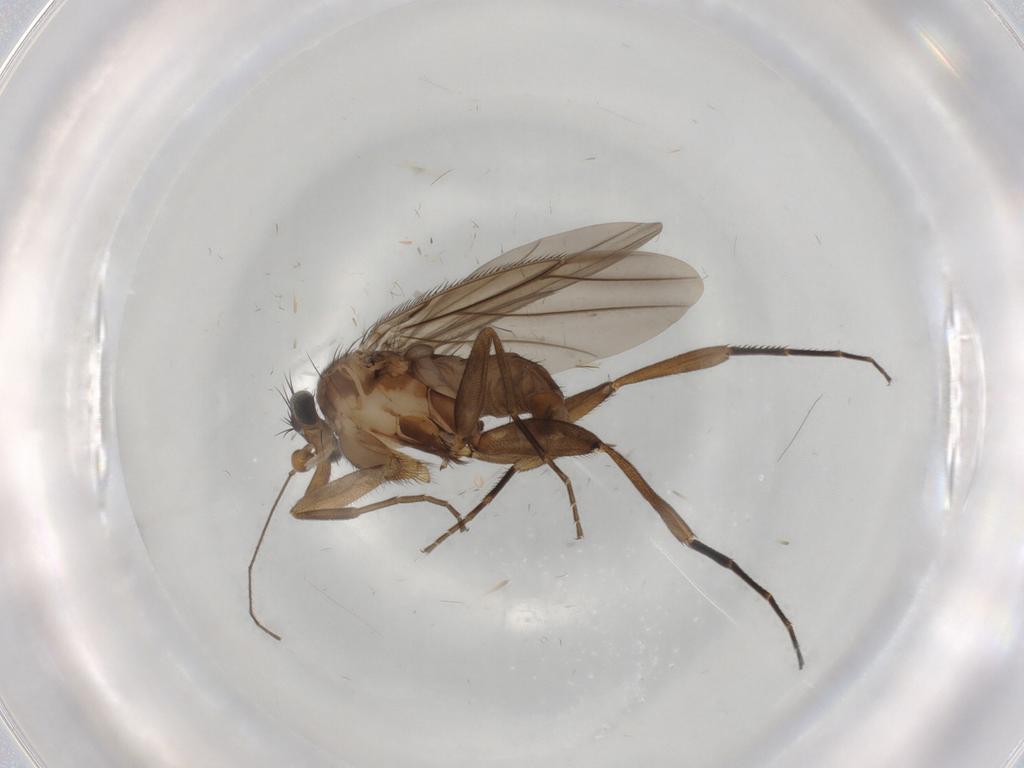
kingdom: Animalia
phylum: Arthropoda
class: Insecta
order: Diptera
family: Phoridae
